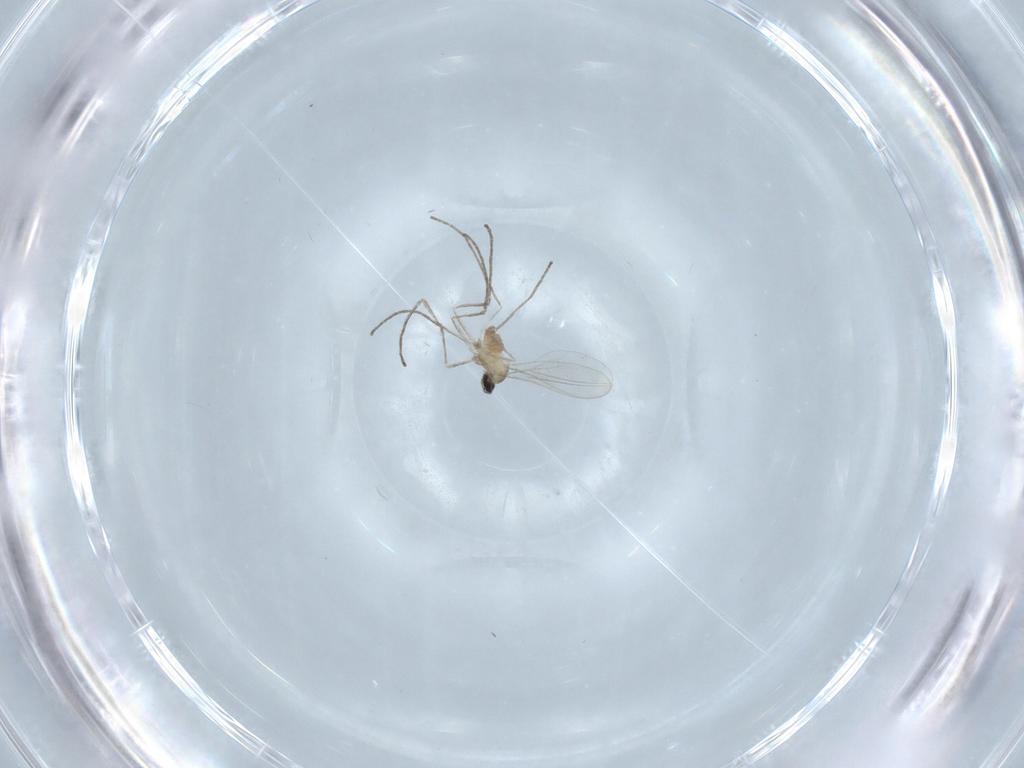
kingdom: Animalia
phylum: Arthropoda
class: Insecta
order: Diptera
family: Cecidomyiidae
